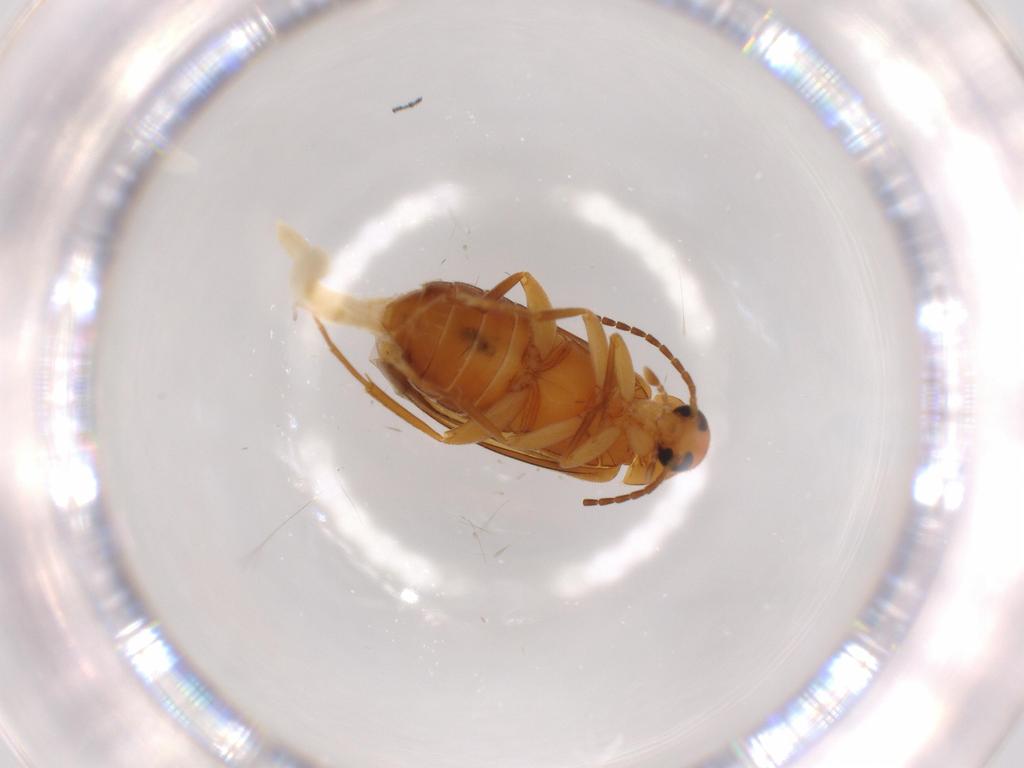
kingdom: Animalia
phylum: Arthropoda
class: Insecta
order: Coleoptera
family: Scraptiidae
